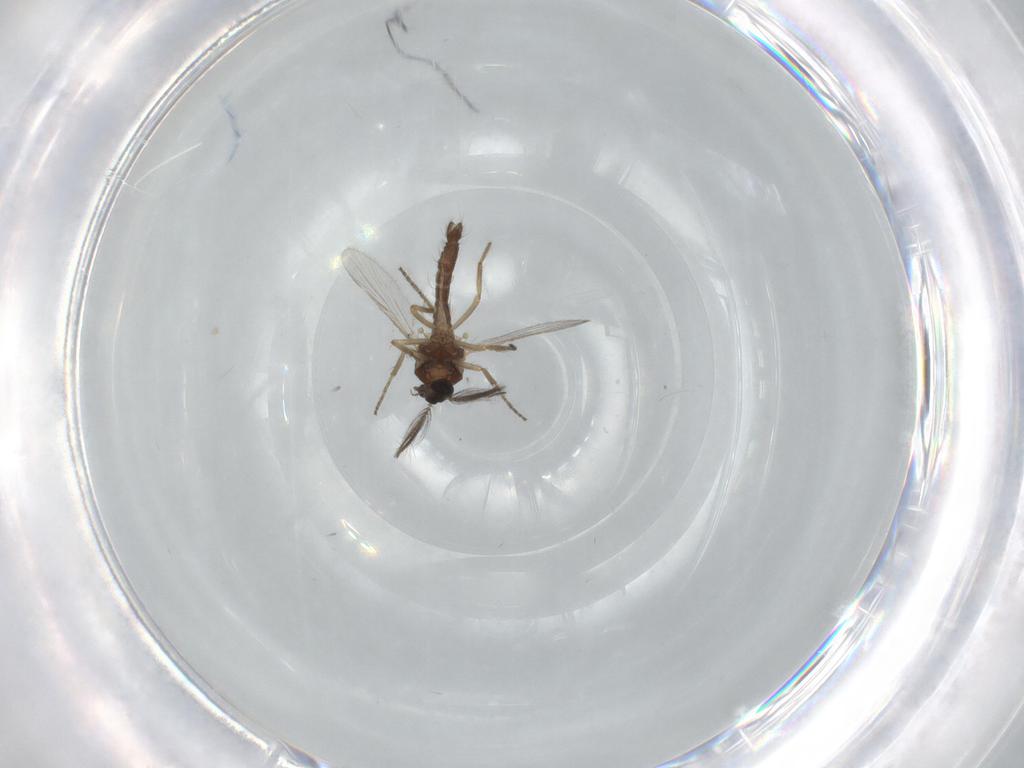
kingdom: Animalia
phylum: Arthropoda
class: Insecta
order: Diptera
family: Ceratopogonidae
